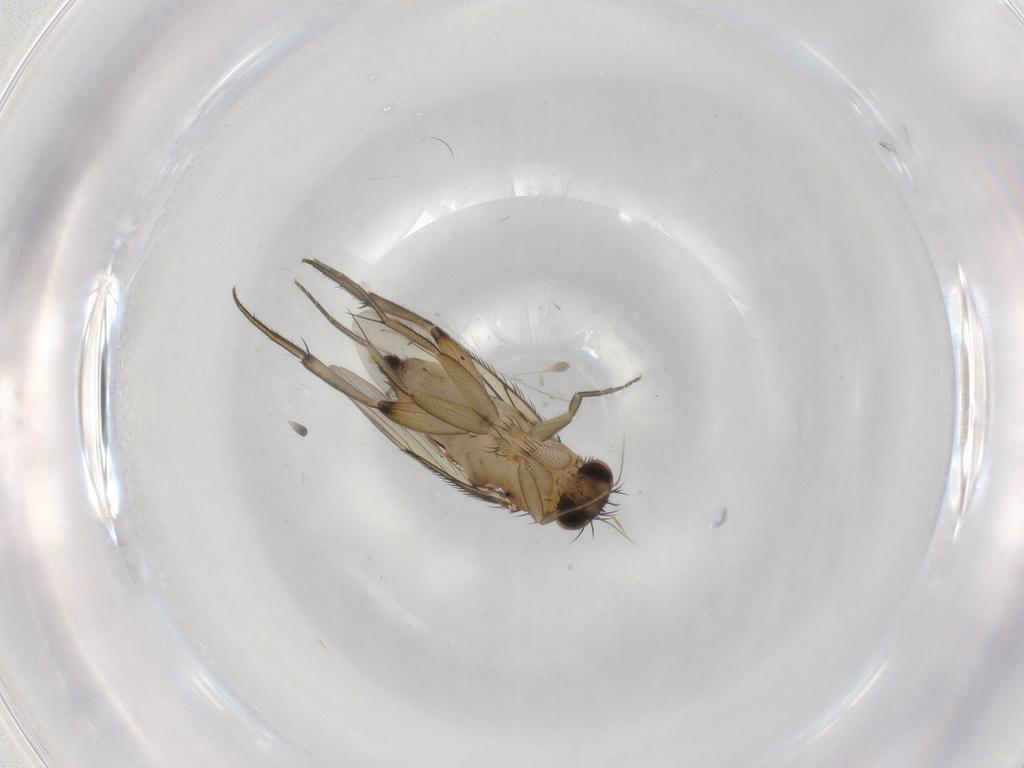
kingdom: Animalia
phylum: Arthropoda
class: Insecta
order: Diptera
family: Phoridae
